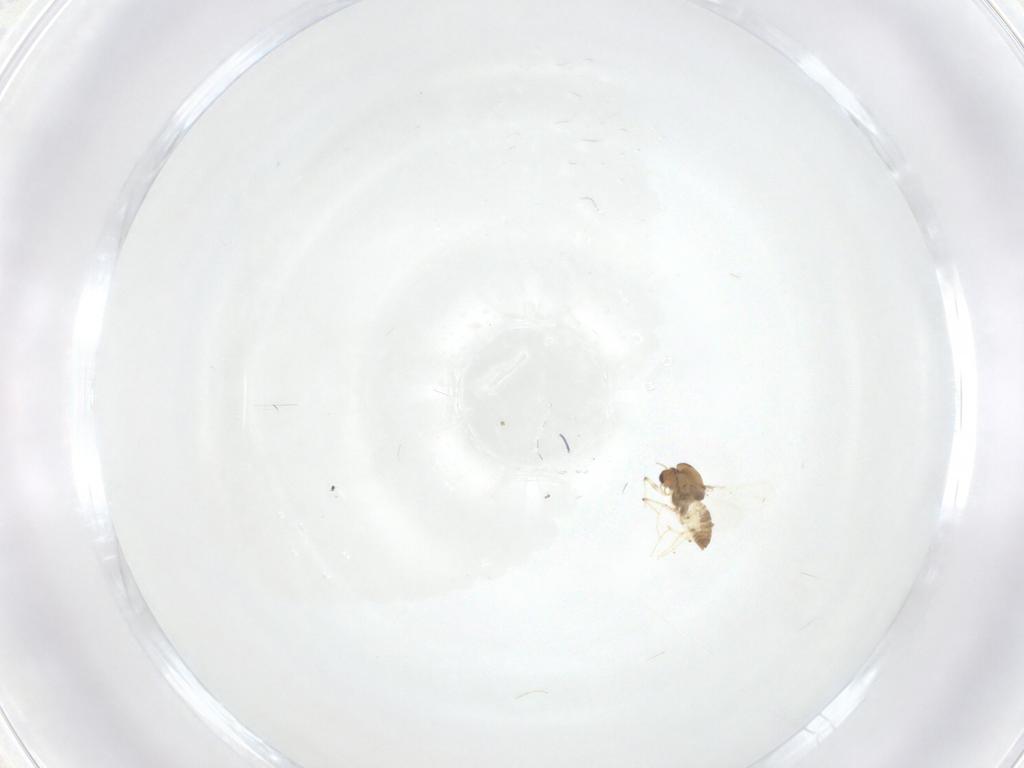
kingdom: Animalia
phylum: Arthropoda
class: Insecta
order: Diptera
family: Chironomidae
